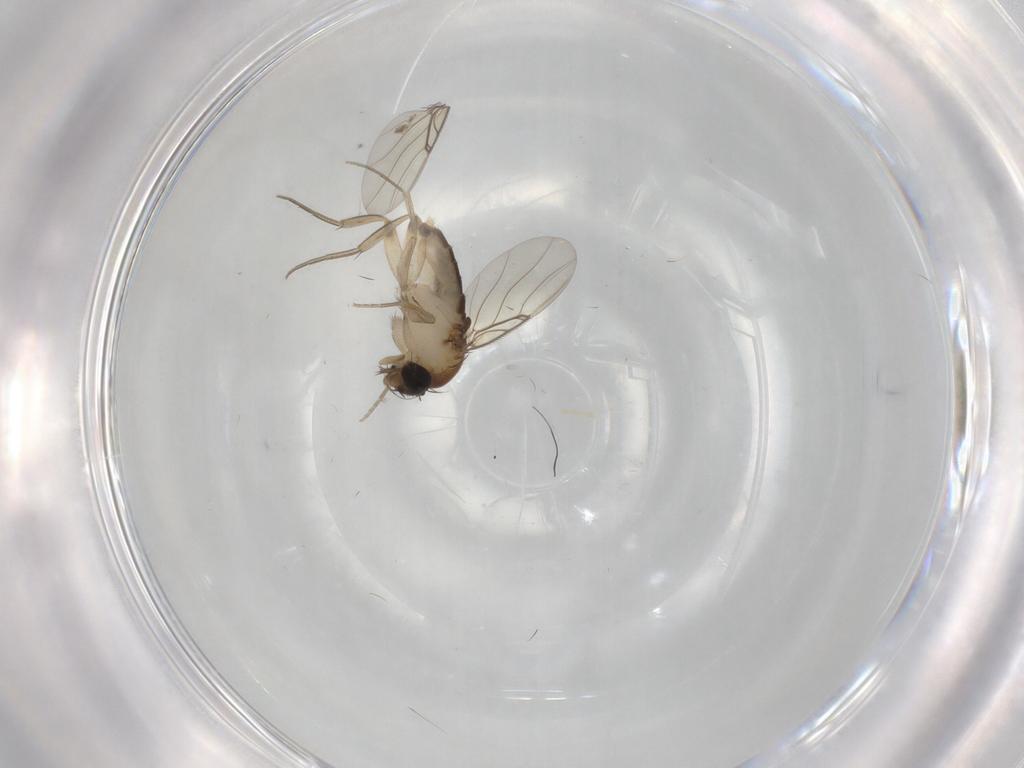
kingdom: Animalia
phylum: Arthropoda
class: Insecta
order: Diptera
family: Phoridae
